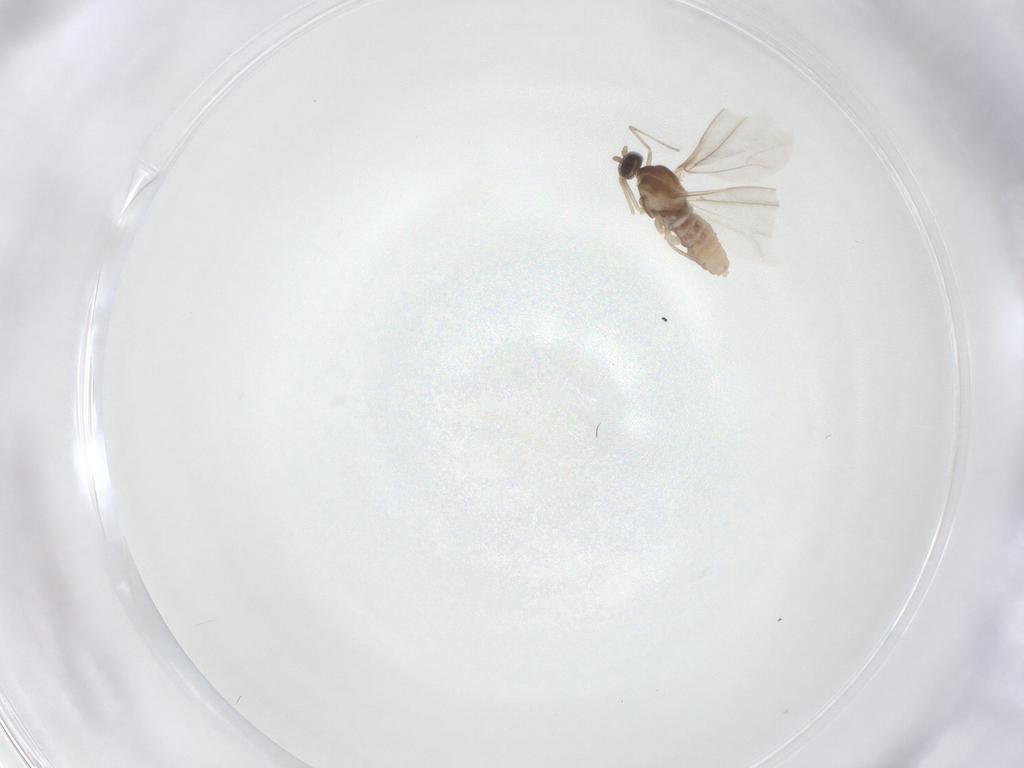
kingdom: Animalia
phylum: Arthropoda
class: Insecta
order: Diptera
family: Cecidomyiidae
